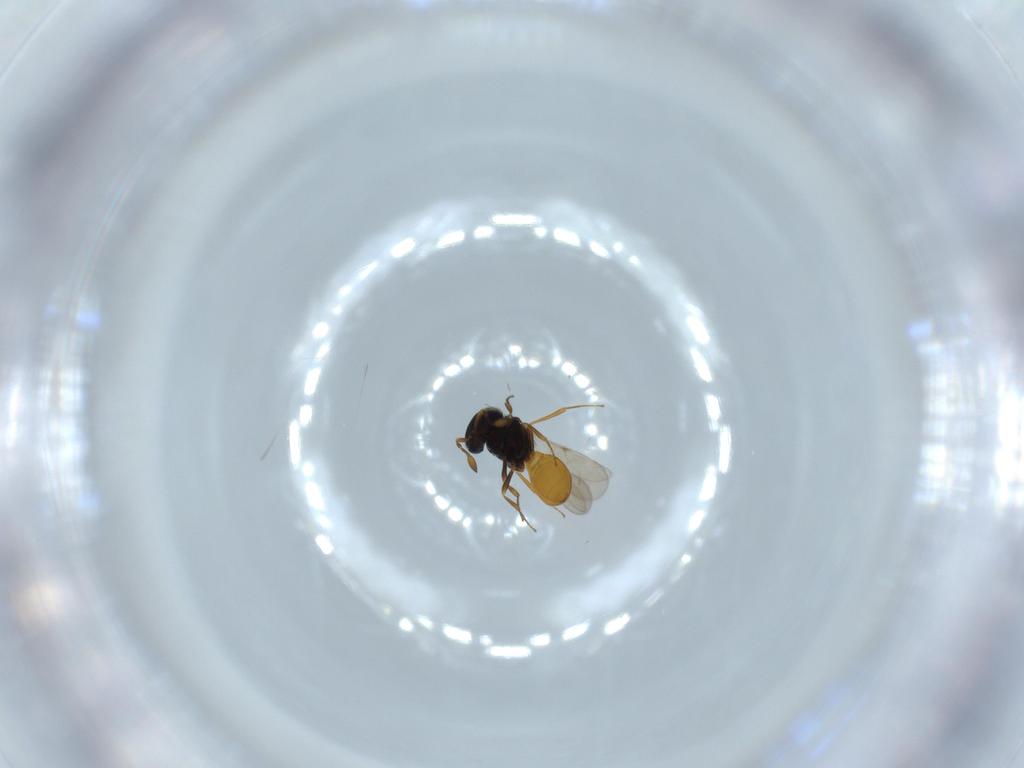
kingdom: Animalia
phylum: Arthropoda
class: Insecta
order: Hymenoptera
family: Scelionidae
